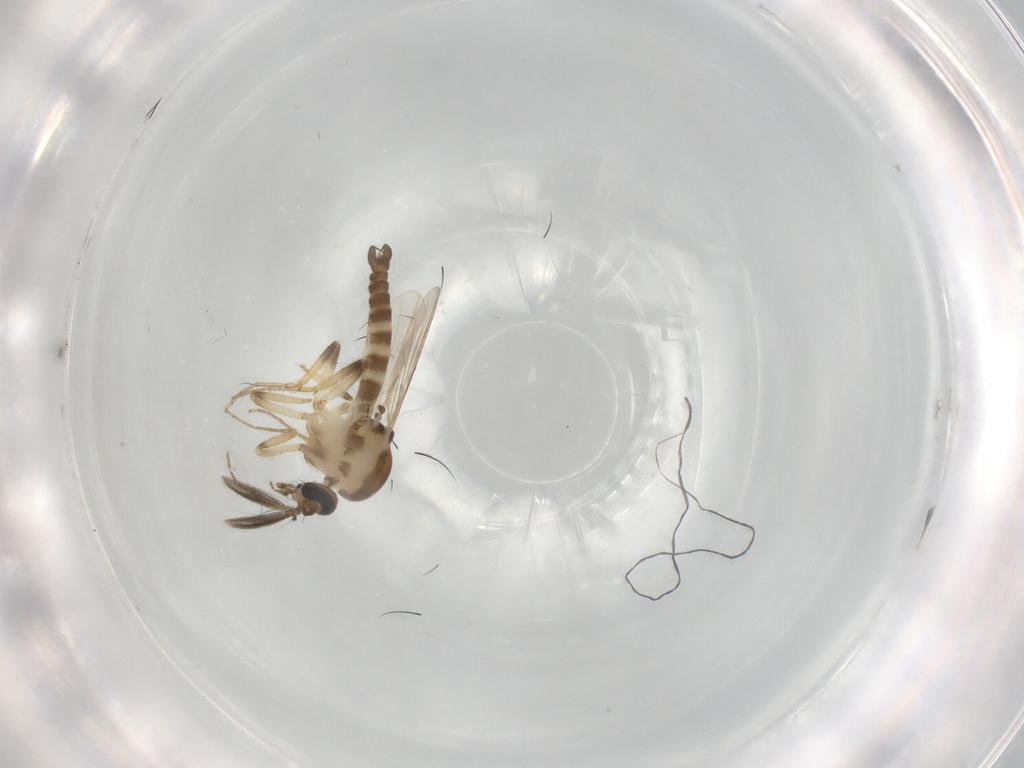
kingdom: Animalia
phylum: Arthropoda
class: Insecta
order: Diptera
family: Ceratopogonidae
